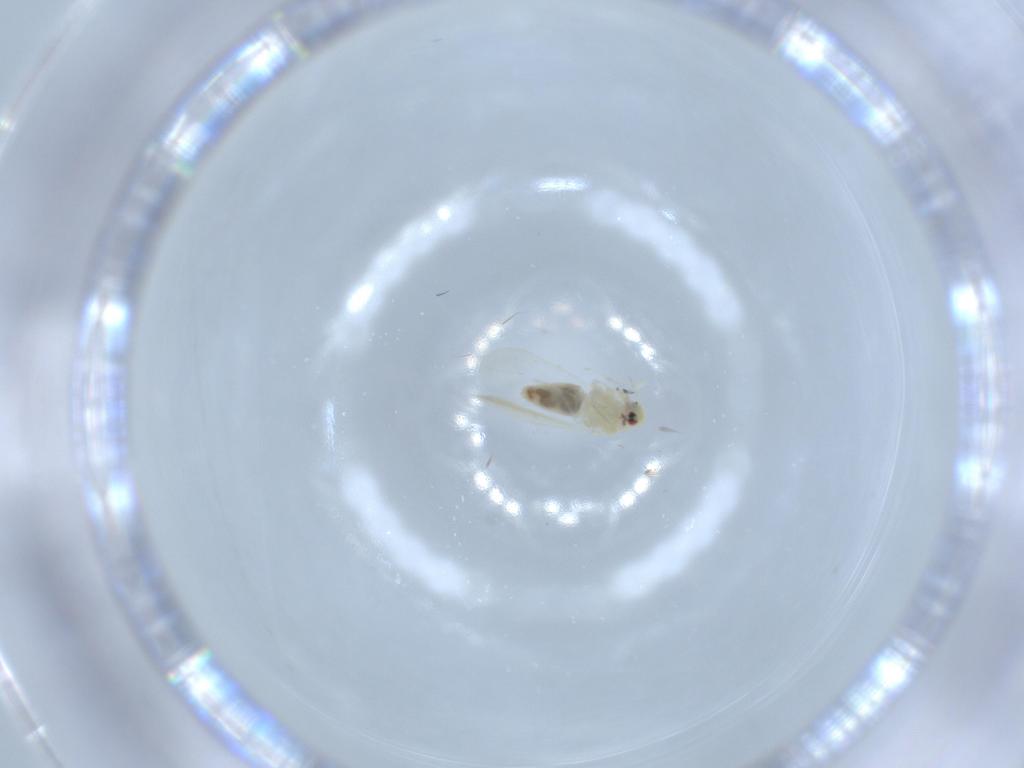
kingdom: Animalia
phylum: Arthropoda
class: Insecta
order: Hemiptera
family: Aleyrodidae
